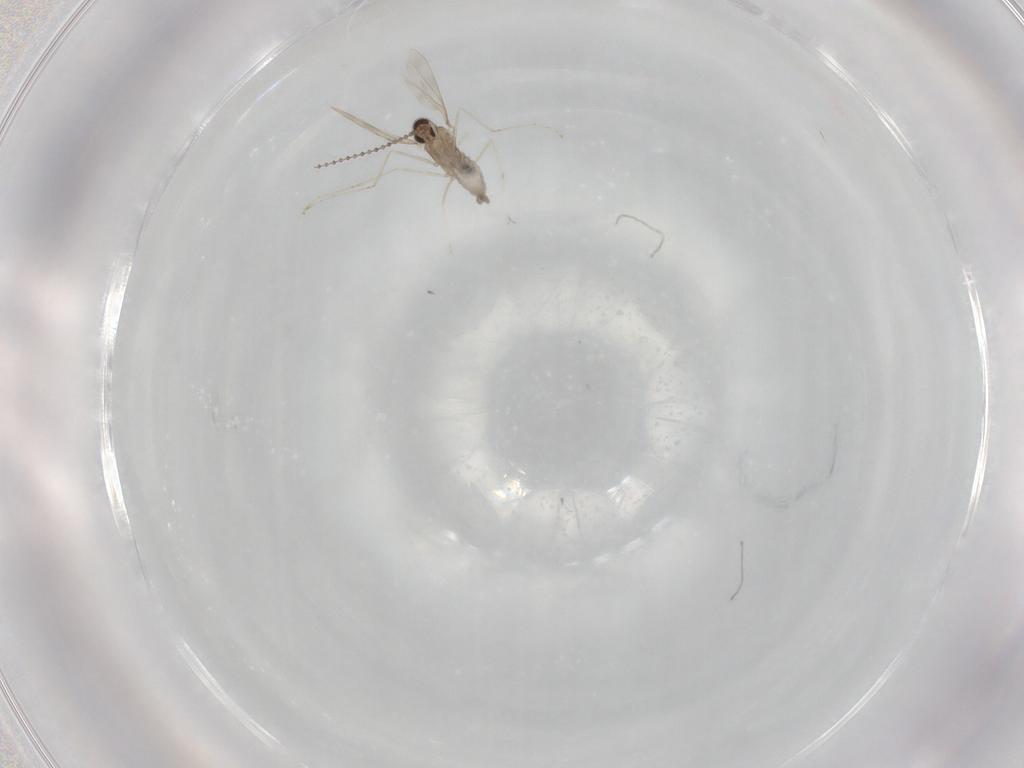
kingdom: Animalia
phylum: Arthropoda
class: Insecta
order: Diptera
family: Cecidomyiidae
